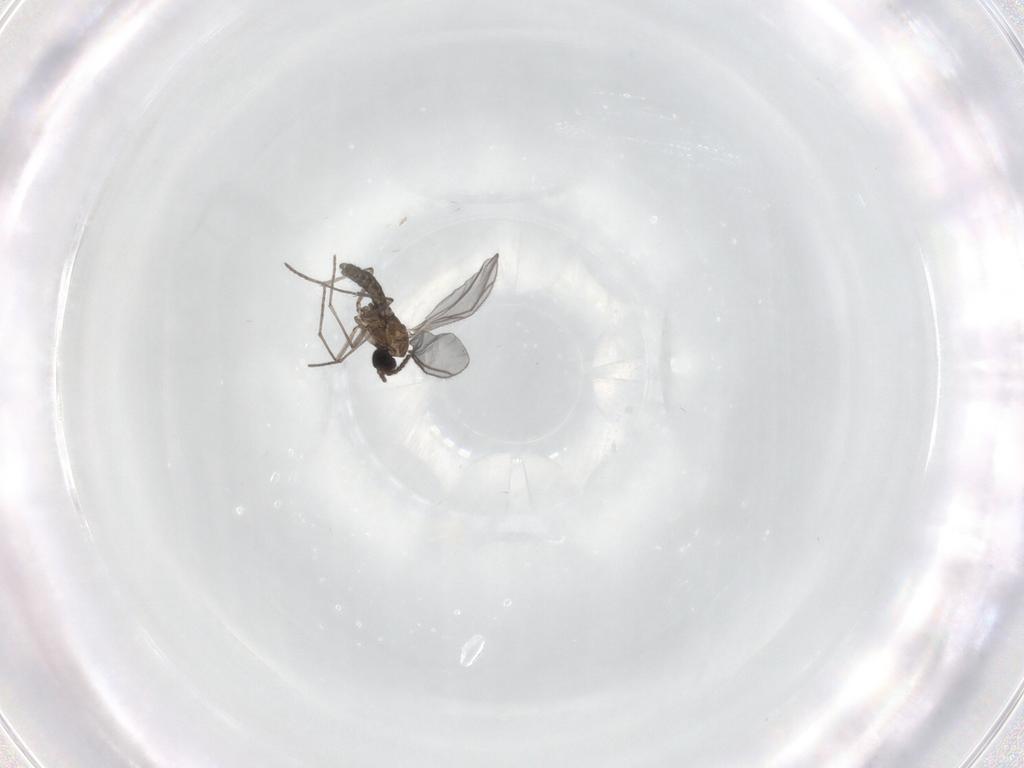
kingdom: Animalia
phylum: Arthropoda
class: Insecta
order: Diptera
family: Sciaridae
